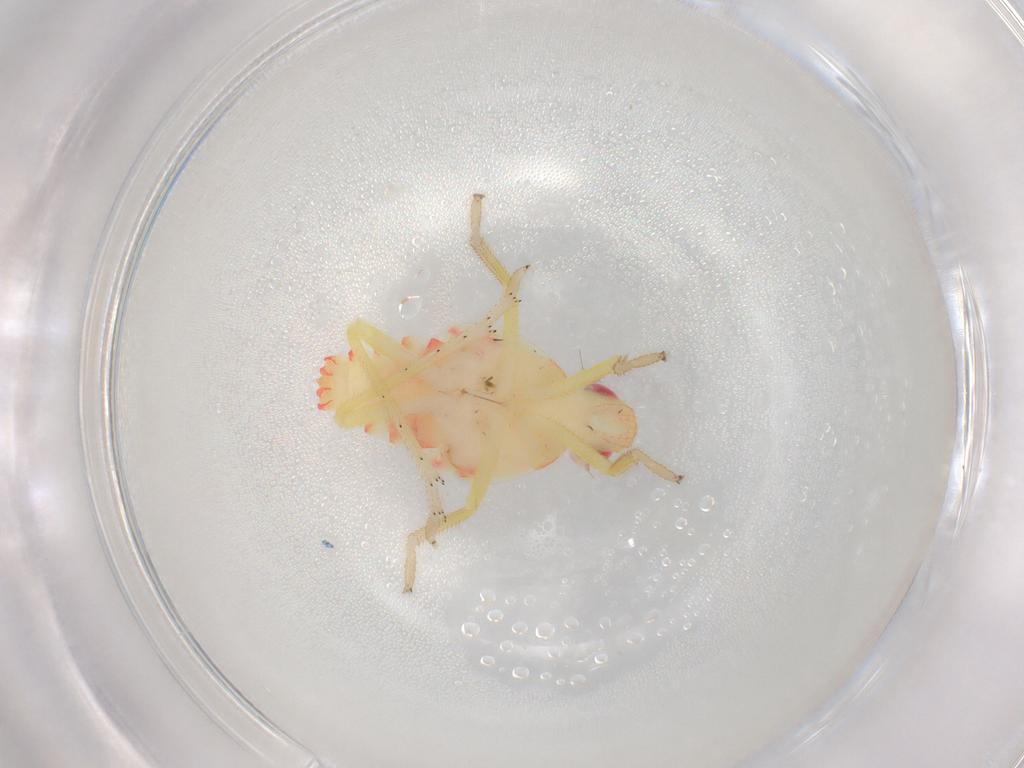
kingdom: Animalia
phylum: Arthropoda
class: Insecta
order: Hemiptera
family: Tropiduchidae
